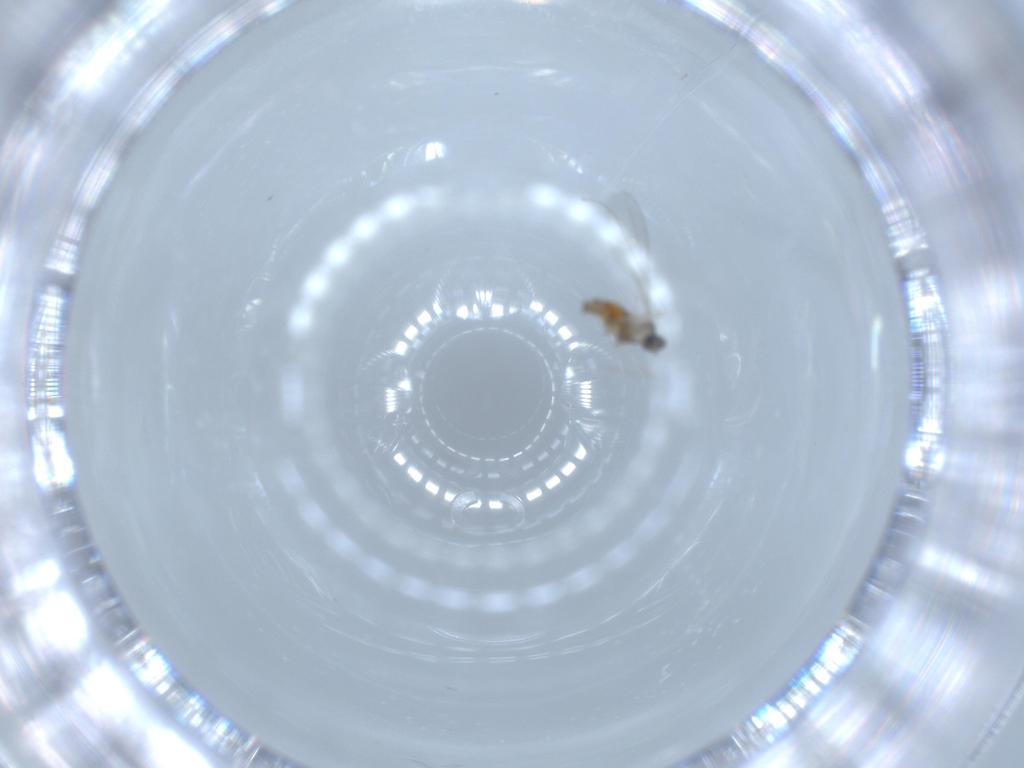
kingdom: Animalia
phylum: Arthropoda
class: Insecta
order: Diptera
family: Cecidomyiidae
